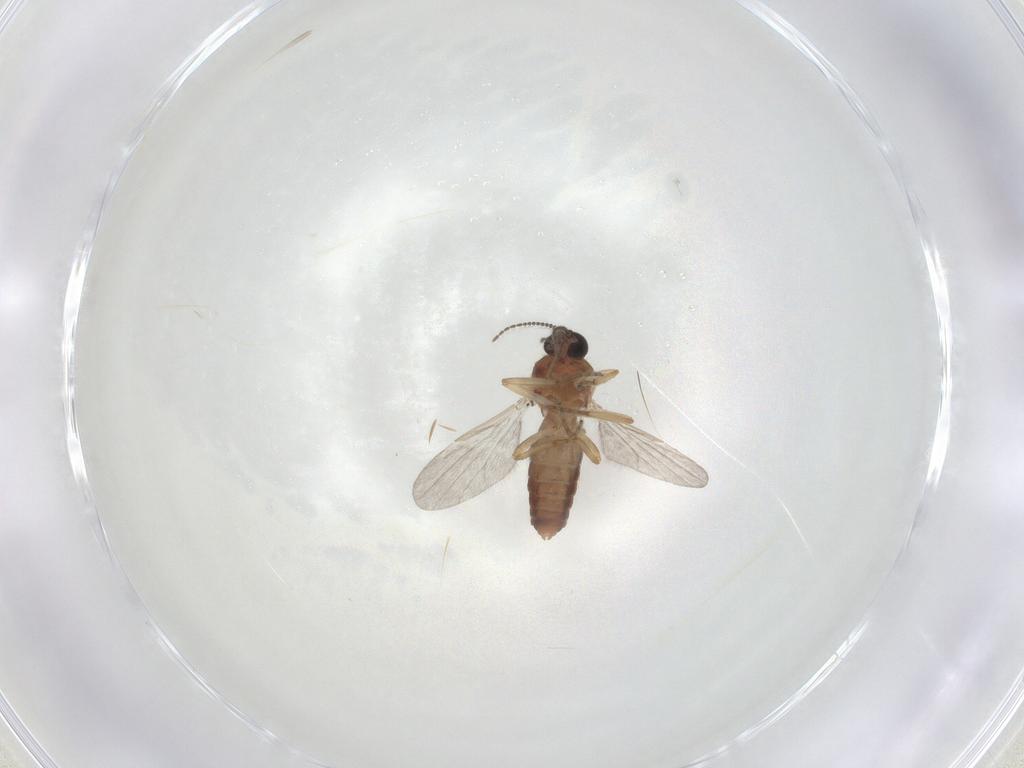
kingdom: Animalia
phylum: Arthropoda
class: Insecta
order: Diptera
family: Ceratopogonidae
